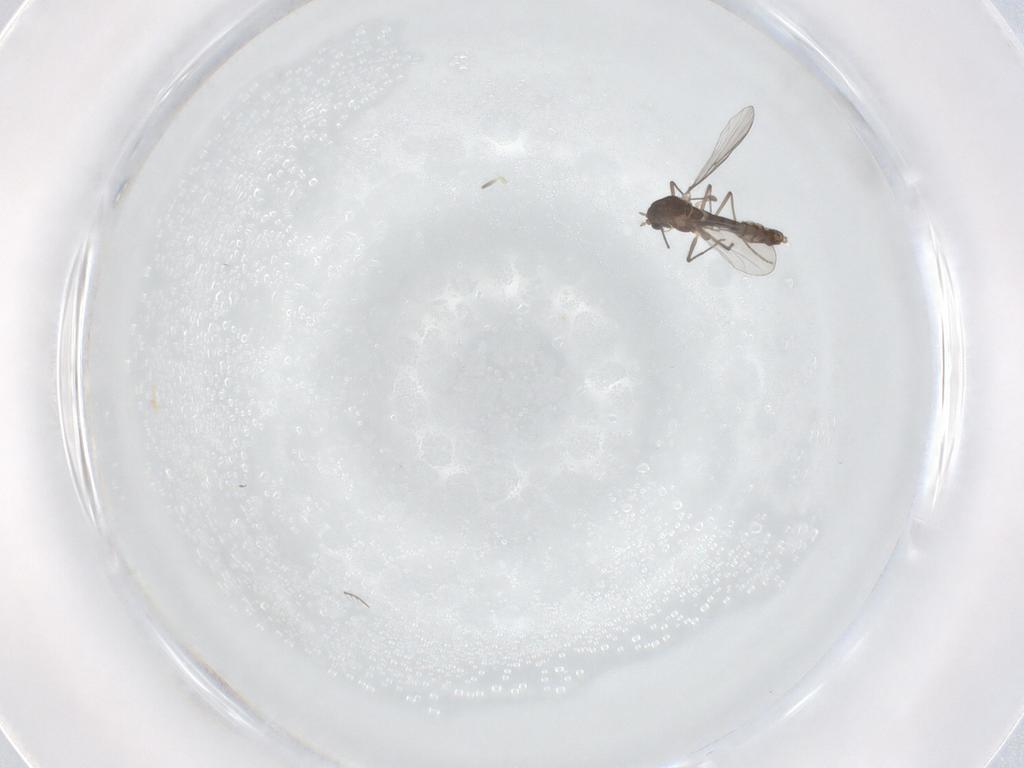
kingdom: Animalia
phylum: Arthropoda
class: Insecta
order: Diptera
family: Chironomidae
